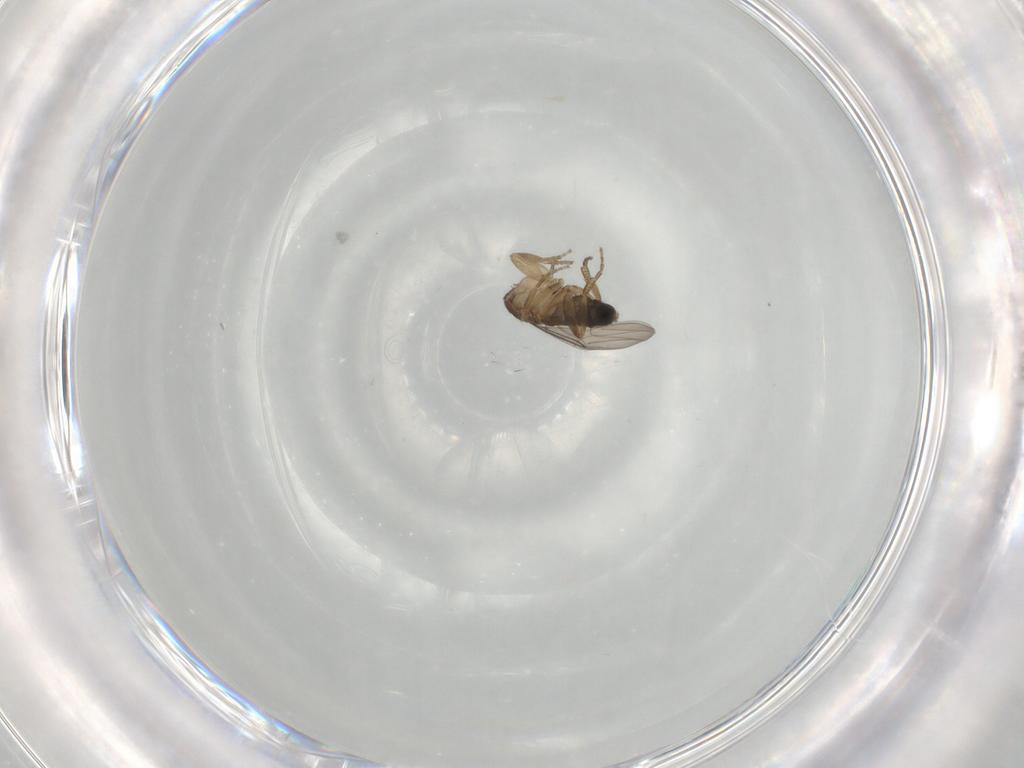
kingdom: Animalia
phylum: Arthropoda
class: Insecta
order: Diptera
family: Phoridae
